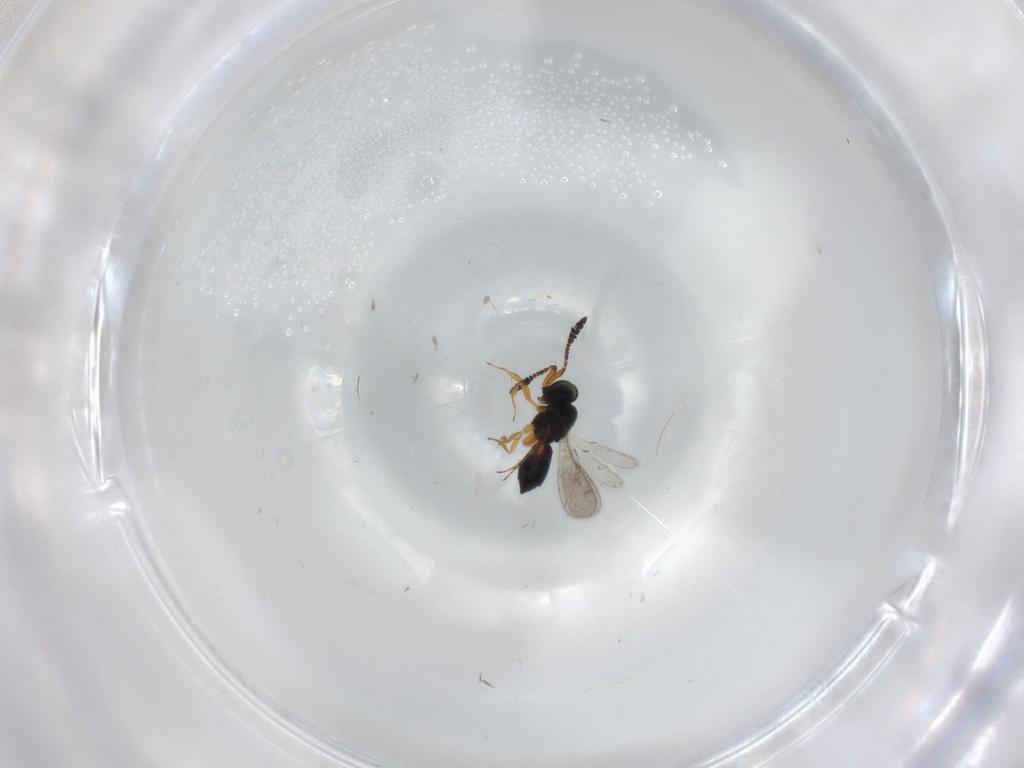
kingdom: Animalia
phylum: Arthropoda
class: Insecta
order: Hymenoptera
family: Scelionidae
